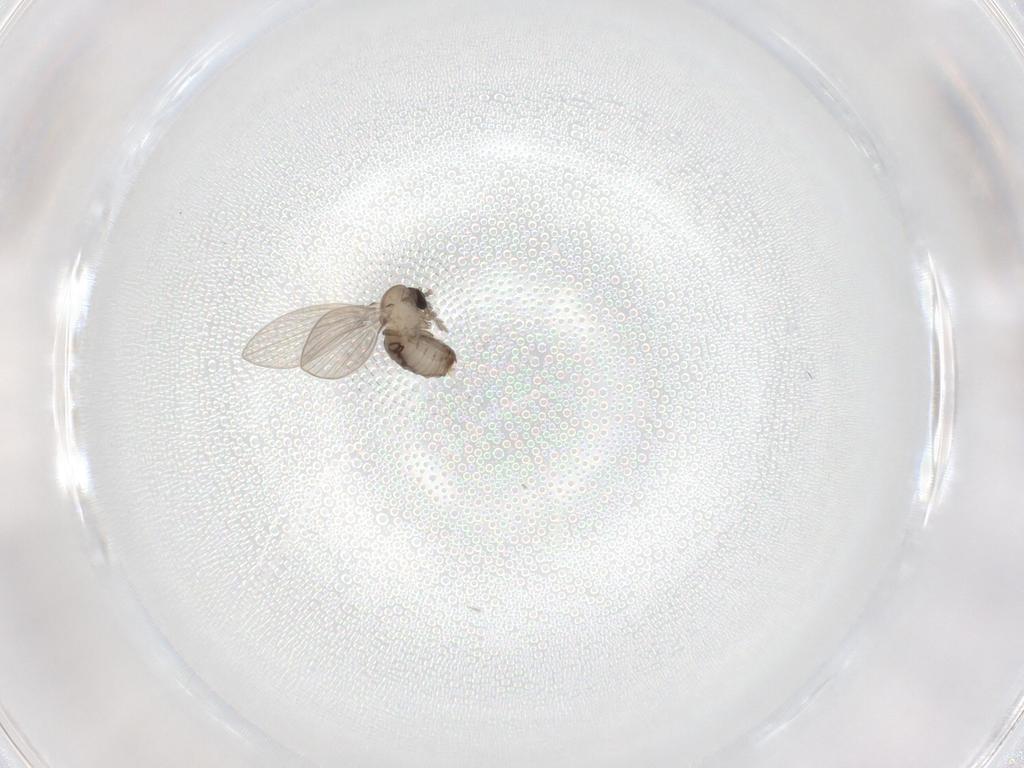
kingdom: Animalia
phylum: Arthropoda
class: Insecta
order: Diptera
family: Psychodidae
